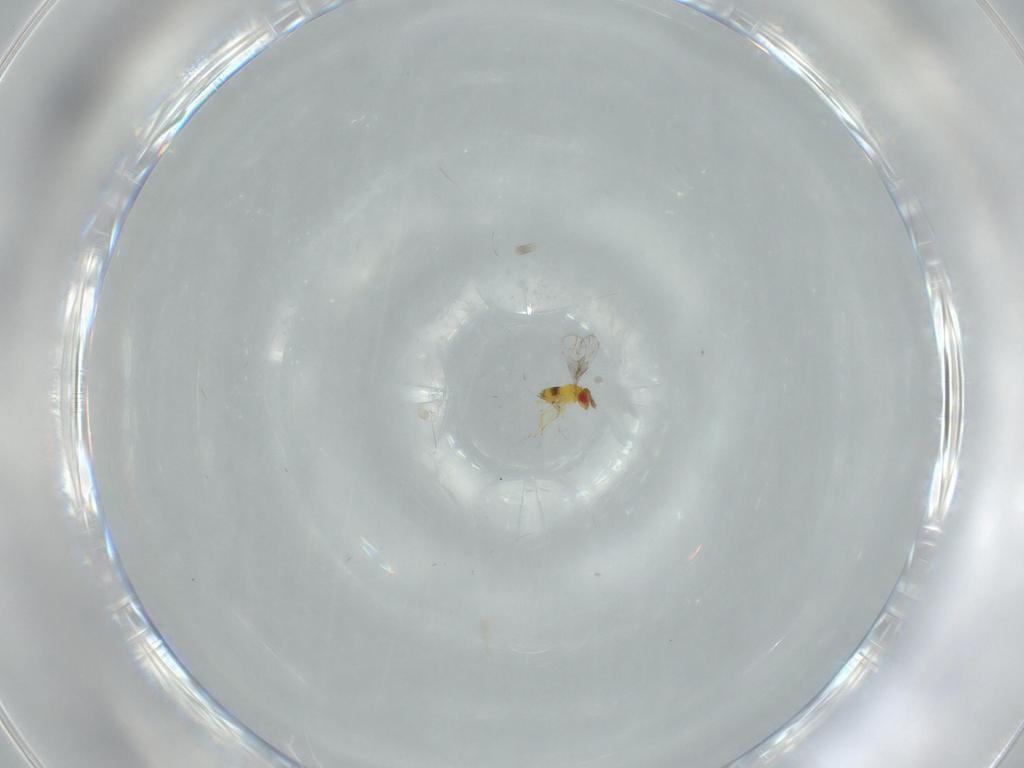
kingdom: Animalia
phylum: Arthropoda
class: Insecta
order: Hymenoptera
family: Trichogrammatidae
